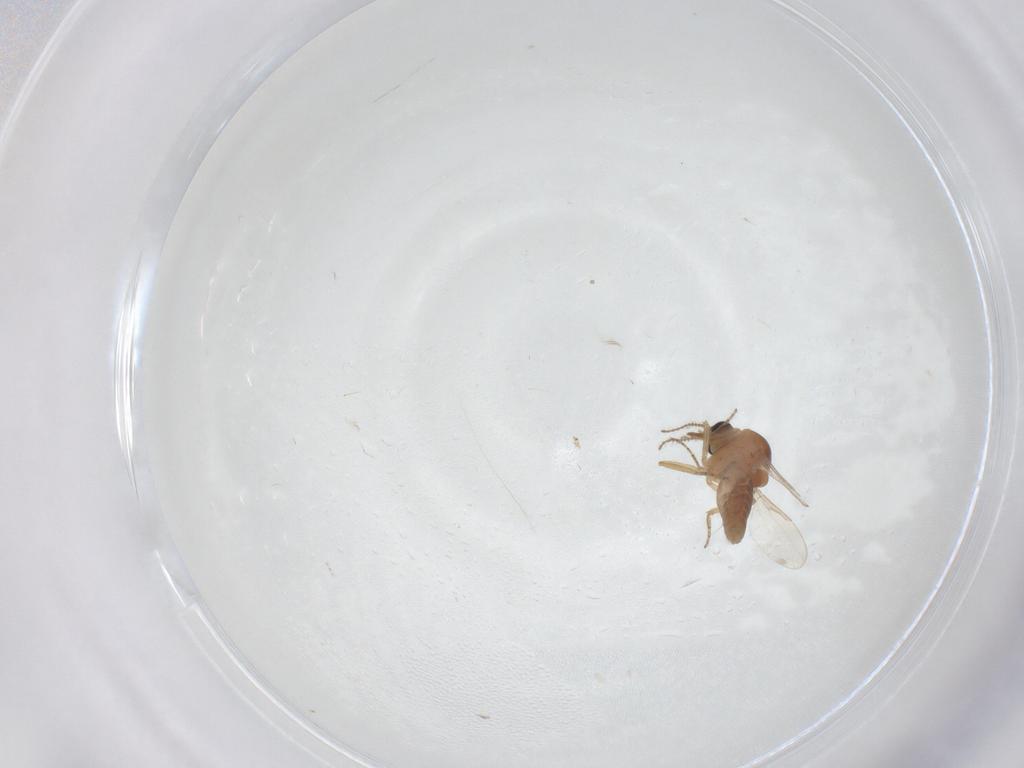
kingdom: Animalia
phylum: Arthropoda
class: Insecta
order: Diptera
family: Ceratopogonidae
